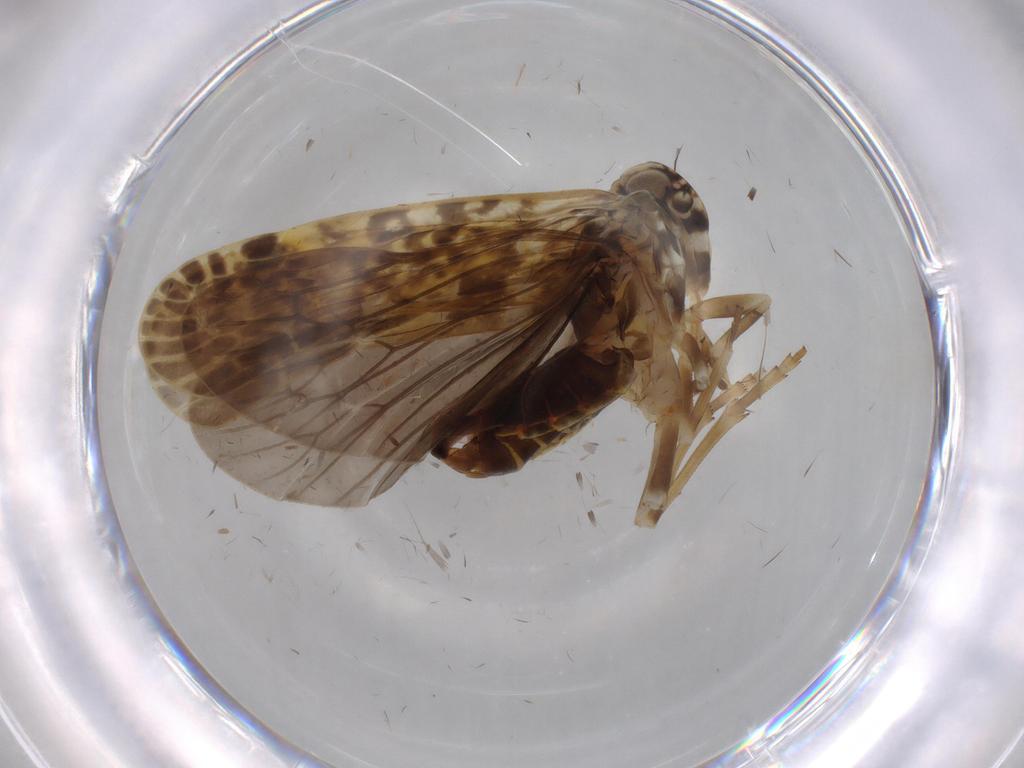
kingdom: Animalia
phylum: Arthropoda
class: Insecta
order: Hemiptera
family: Achilidae
